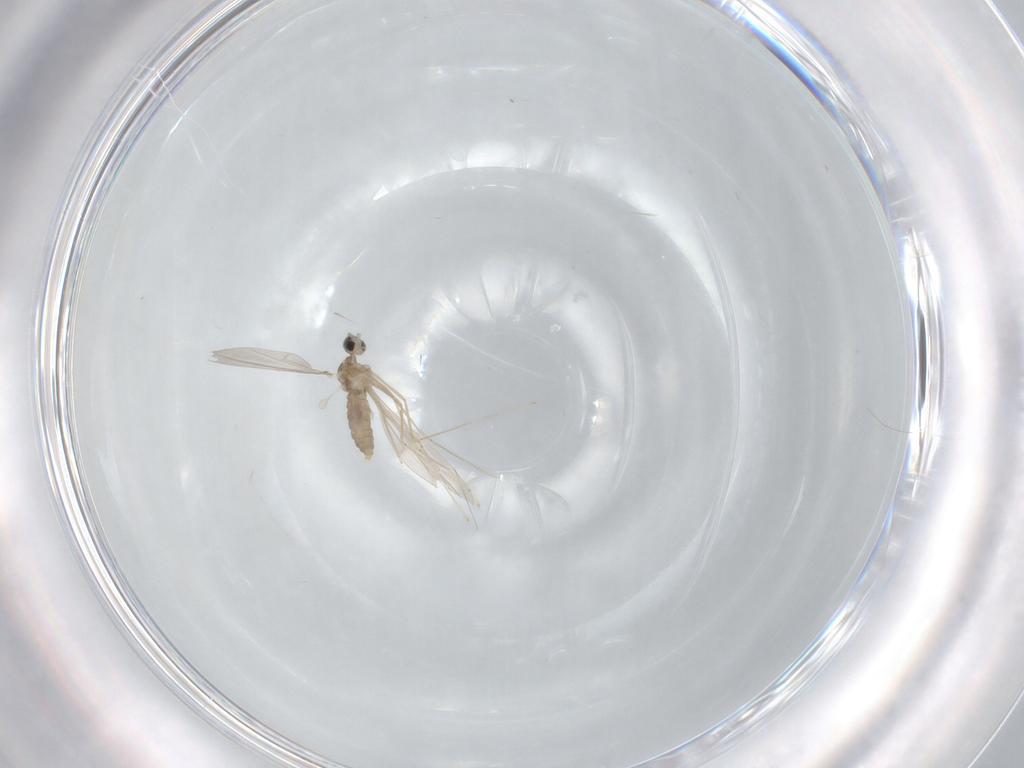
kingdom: Animalia
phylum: Arthropoda
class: Insecta
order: Diptera
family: Cecidomyiidae
